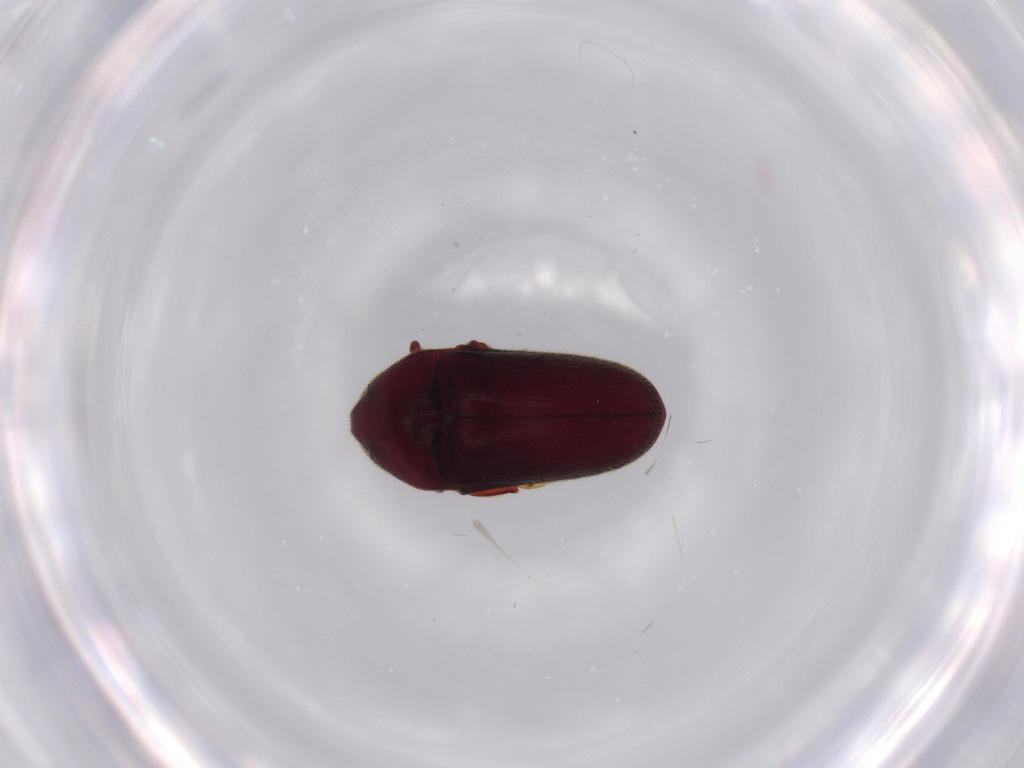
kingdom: Animalia
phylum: Arthropoda
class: Insecta
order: Coleoptera
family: Throscidae
